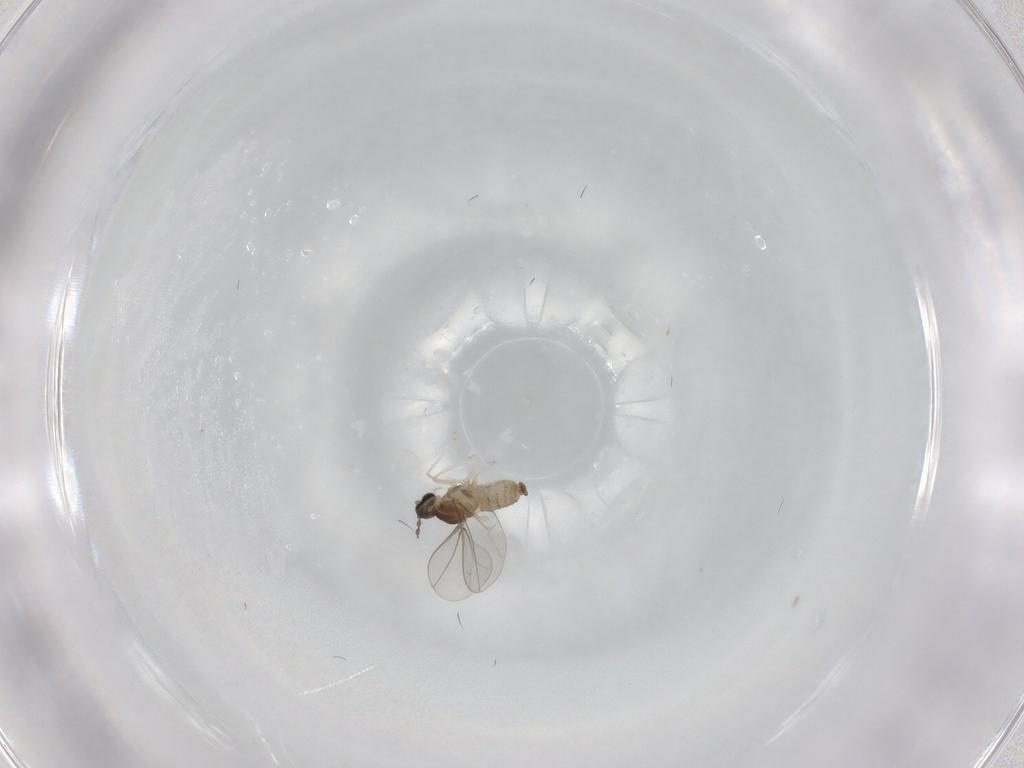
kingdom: Animalia
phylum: Arthropoda
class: Insecta
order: Diptera
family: Cecidomyiidae
